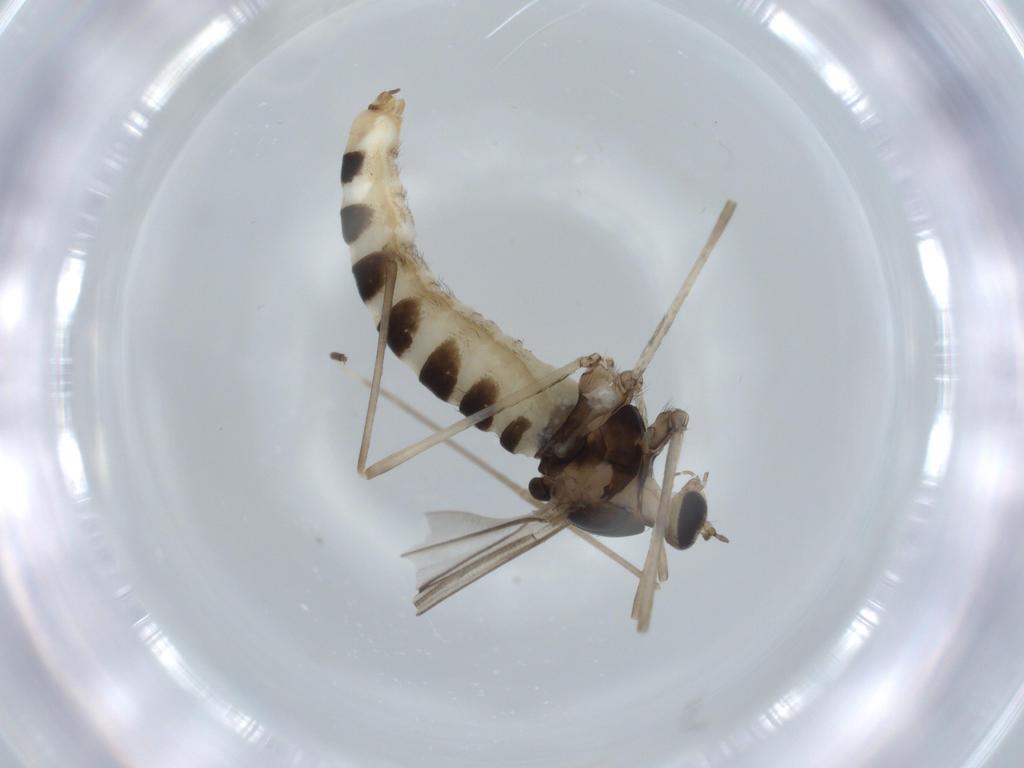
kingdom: Animalia
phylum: Arthropoda
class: Insecta
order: Diptera
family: Cecidomyiidae
